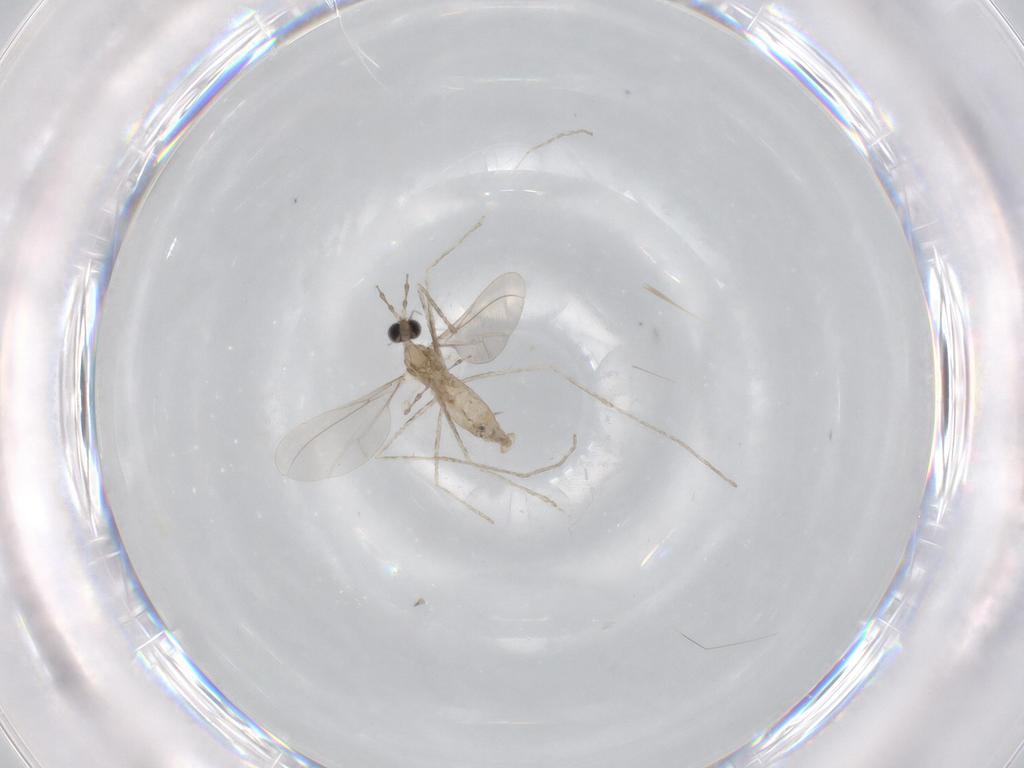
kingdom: Animalia
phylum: Arthropoda
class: Insecta
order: Diptera
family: Cecidomyiidae
